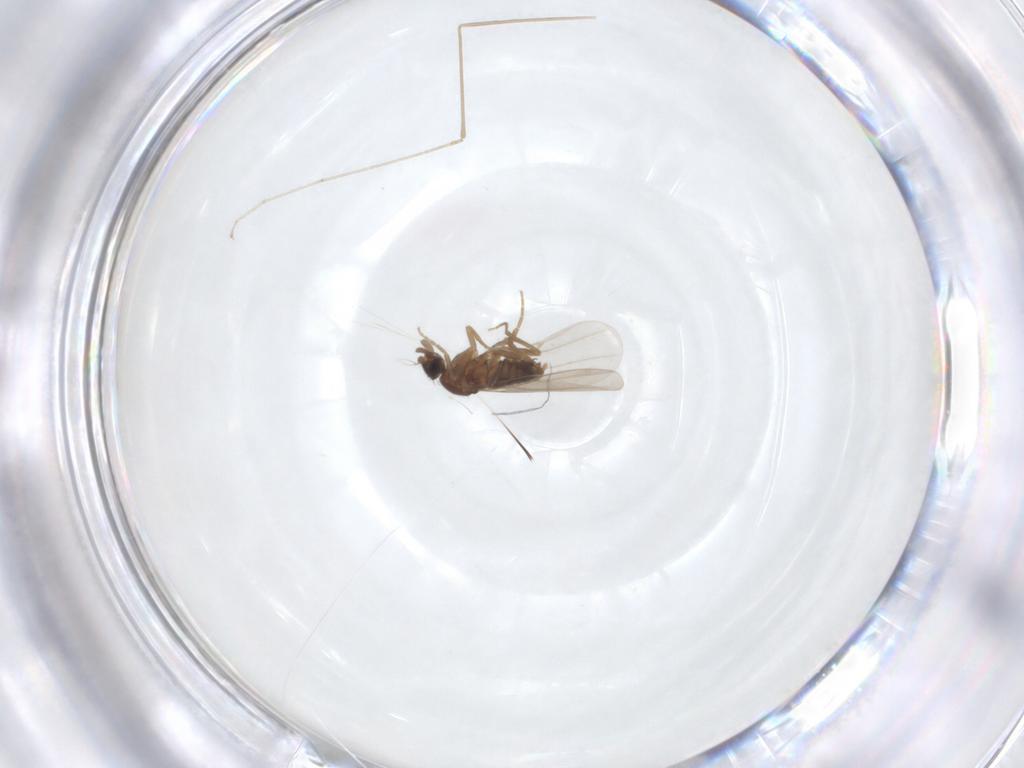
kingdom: Animalia
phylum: Arthropoda
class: Insecta
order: Diptera
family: Phoridae
